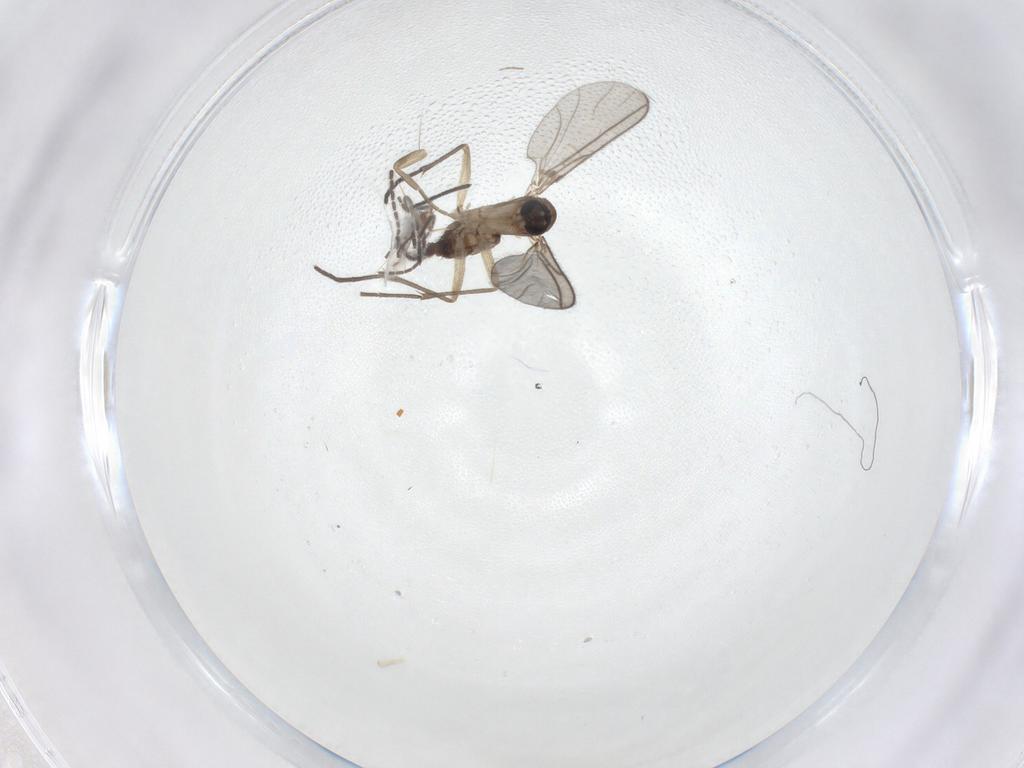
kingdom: Animalia
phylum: Arthropoda
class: Insecta
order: Diptera
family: Sciaridae
